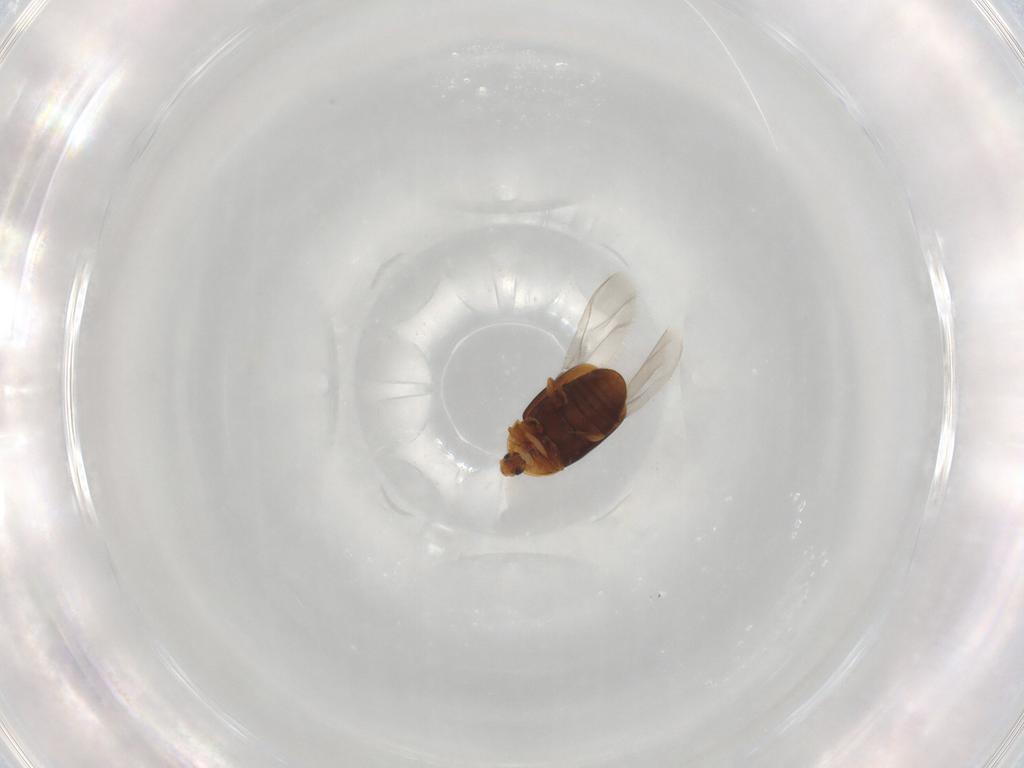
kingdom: Animalia
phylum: Arthropoda
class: Insecta
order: Coleoptera
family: Corylophidae
